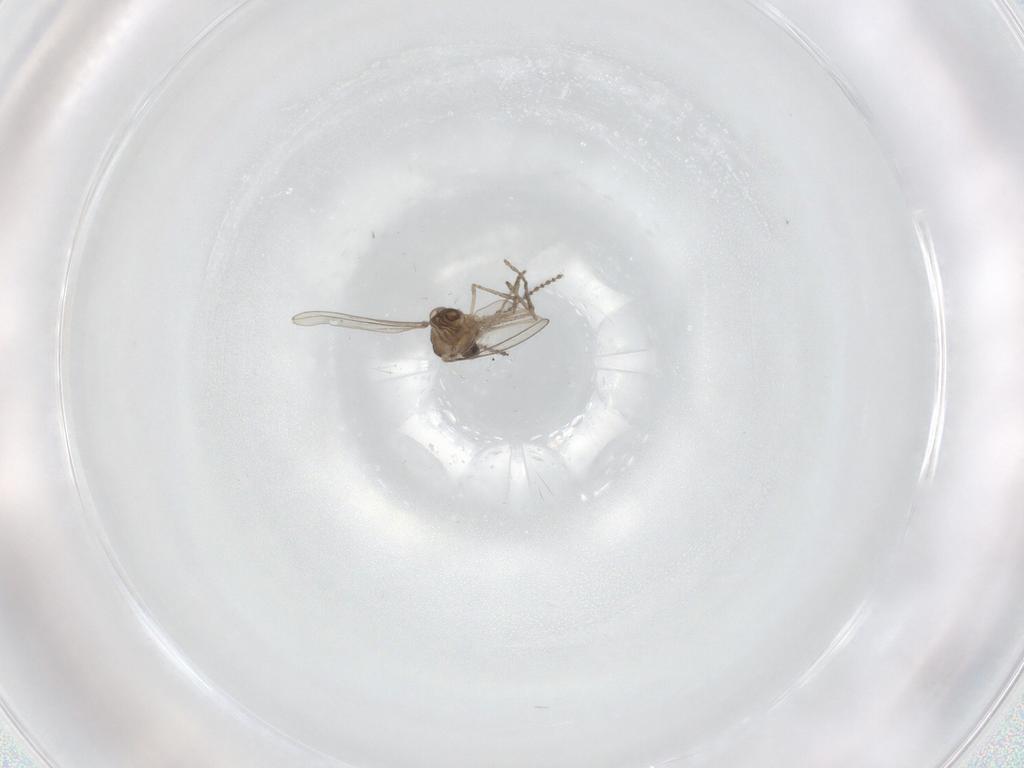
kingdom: Animalia
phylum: Arthropoda
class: Insecta
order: Diptera
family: Cecidomyiidae
